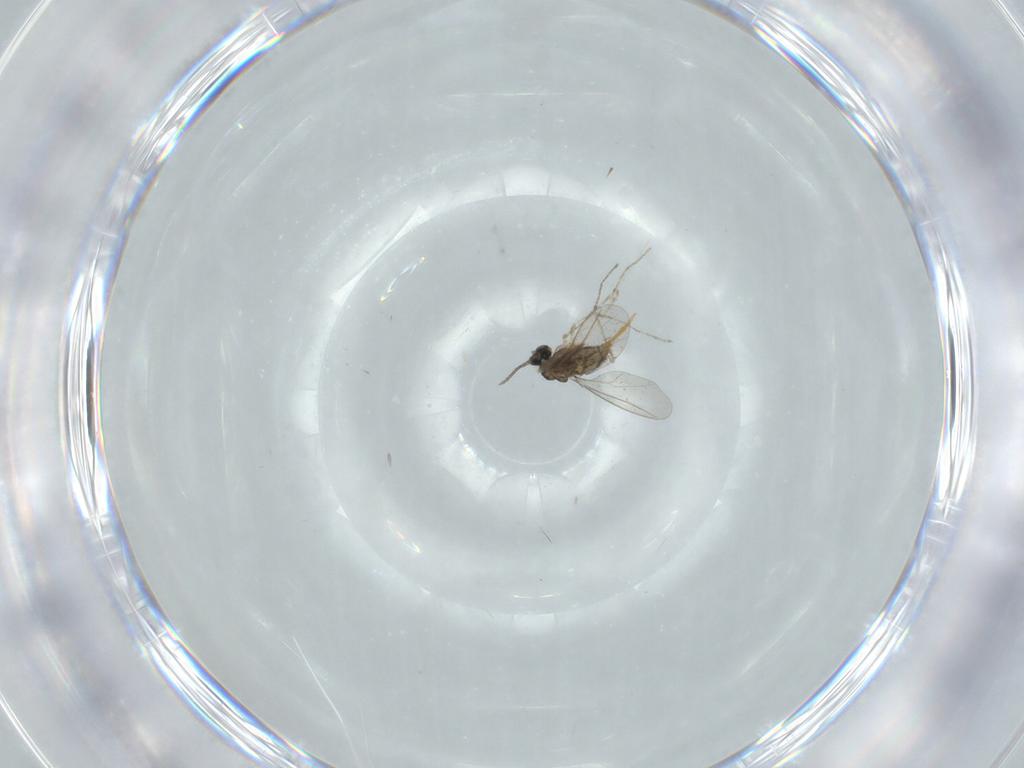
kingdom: Animalia
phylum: Arthropoda
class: Insecta
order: Diptera
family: Cecidomyiidae
